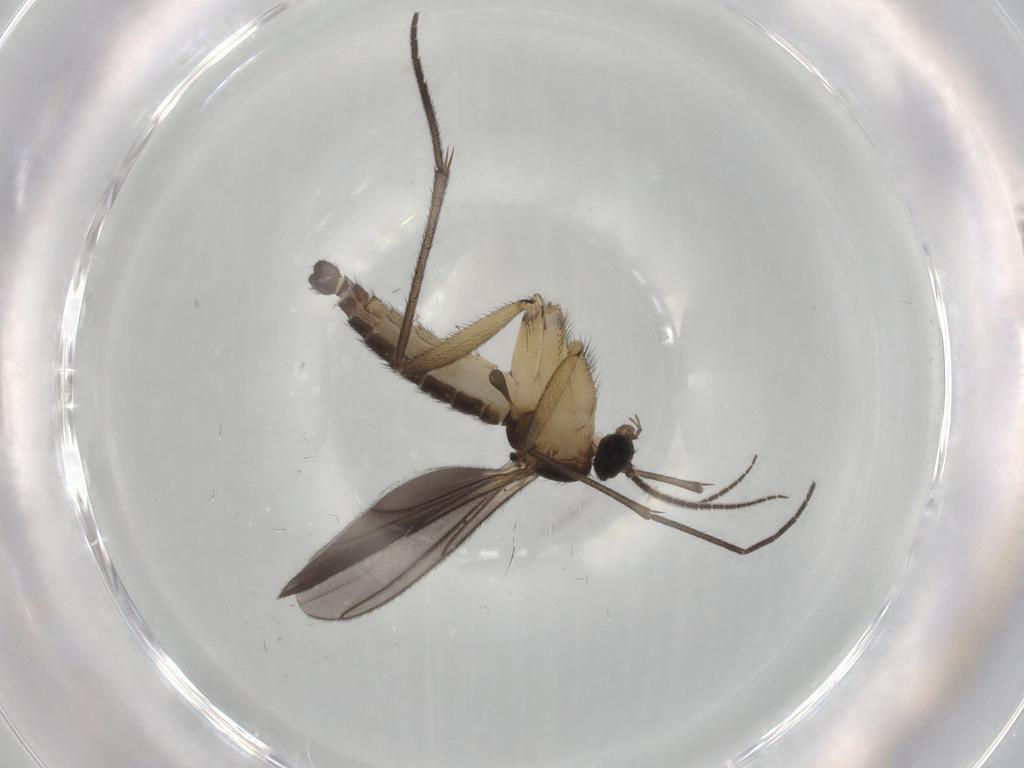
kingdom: Animalia
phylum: Arthropoda
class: Insecta
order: Diptera
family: Sciaridae
